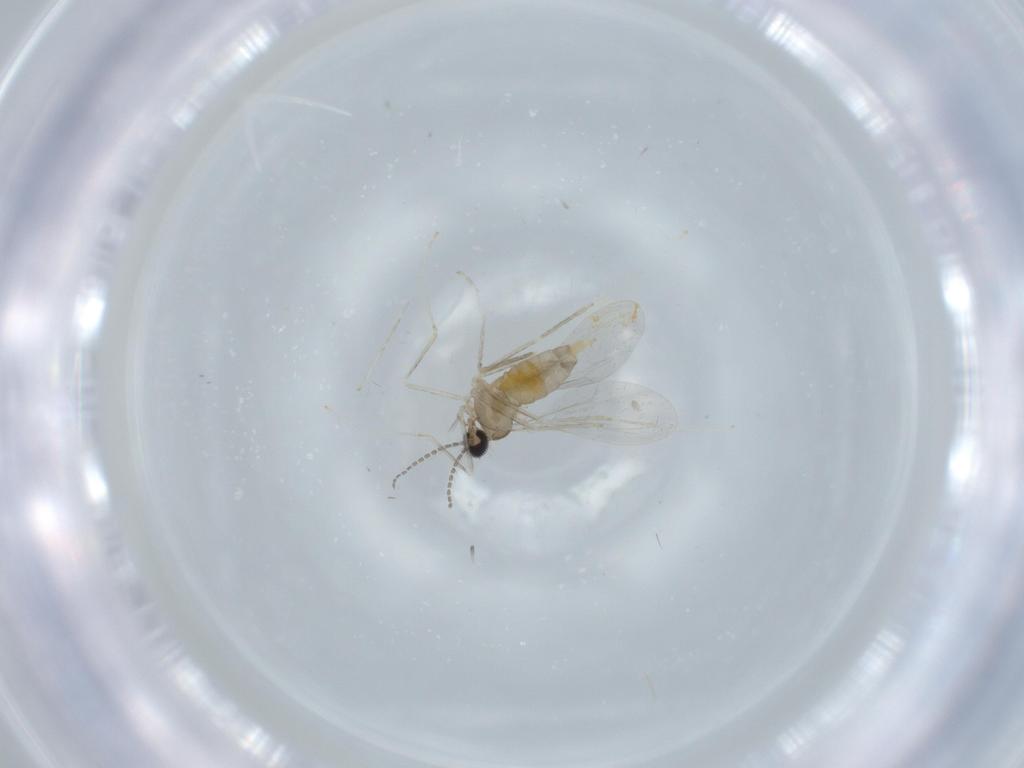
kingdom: Animalia
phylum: Arthropoda
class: Insecta
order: Diptera
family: Cecidomyiidae
